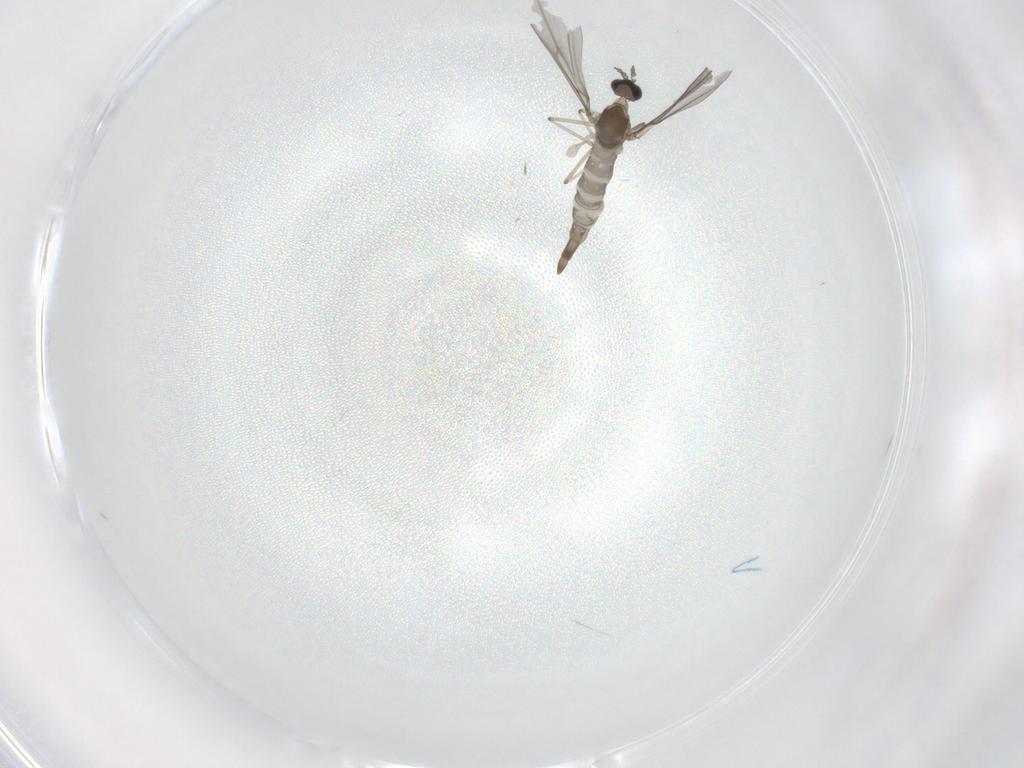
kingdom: Animalia
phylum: Arthropoda
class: Insecta
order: Diptera
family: Cecidomyiidae
